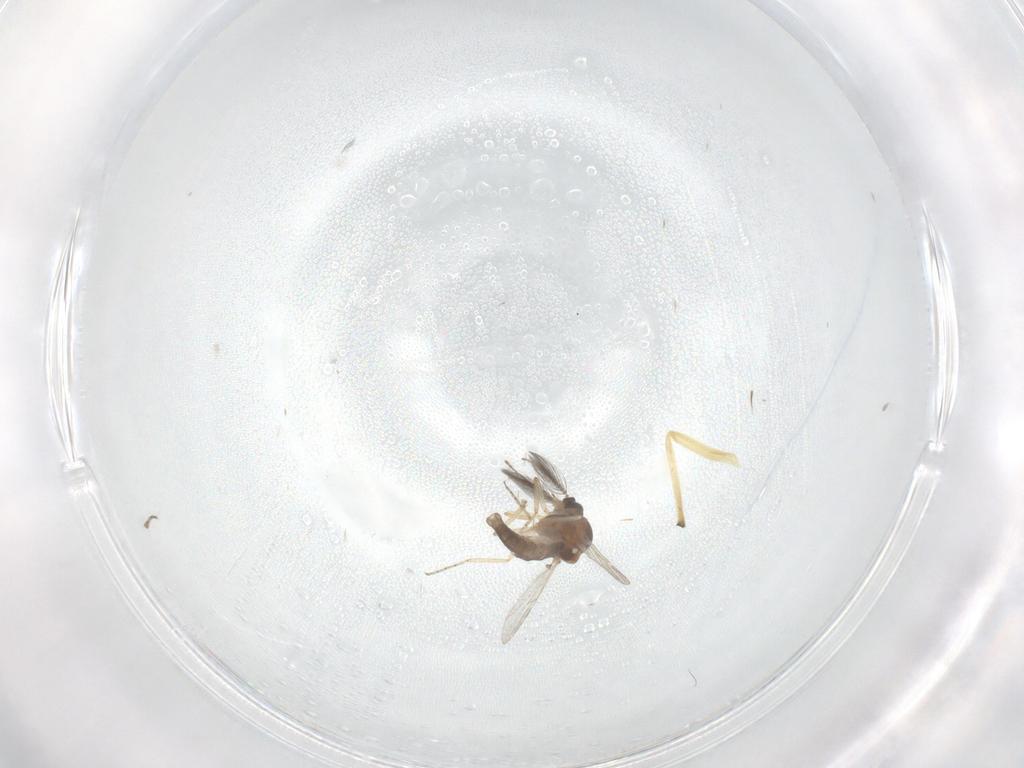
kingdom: Animalia
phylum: Arthropoda
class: Insecta
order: Diptera
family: Ceratopogonidae
